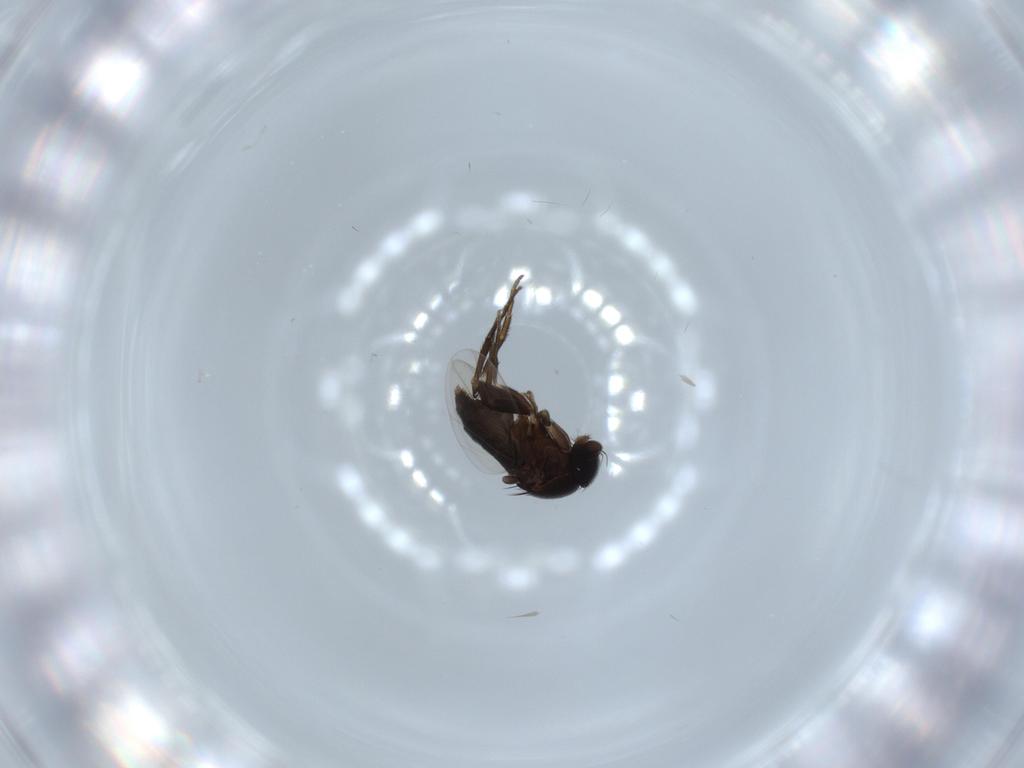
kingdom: Animalia
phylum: Arthropoda
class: Insecta
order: Diptera
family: Phoridae
